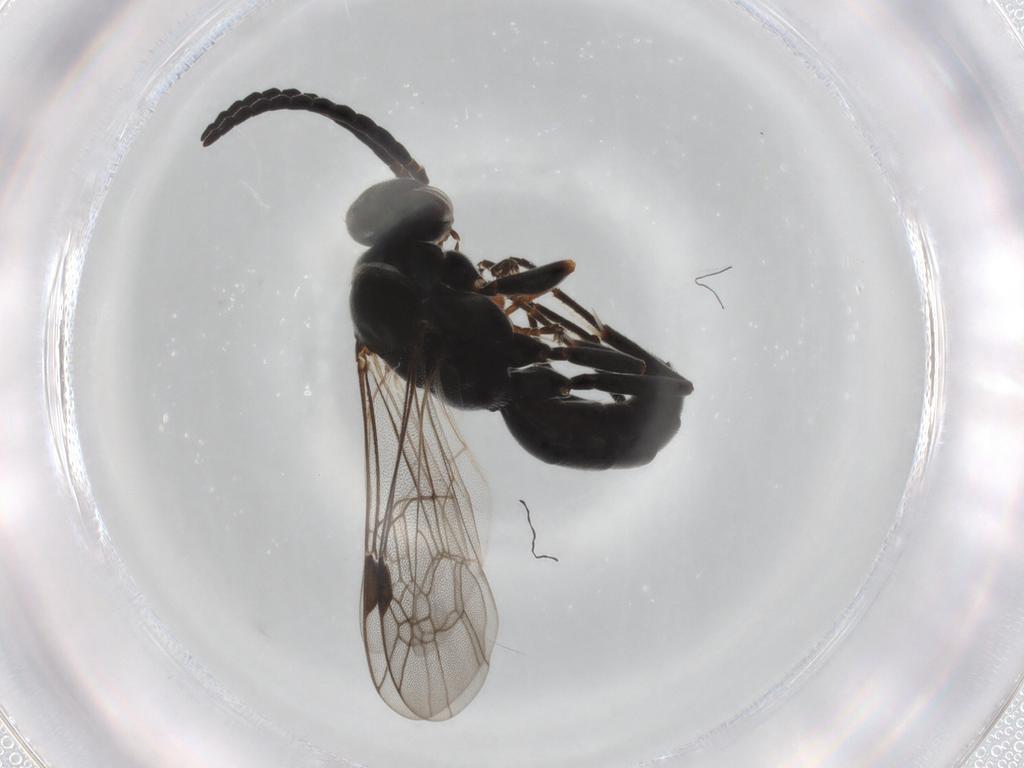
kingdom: Animalia
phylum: Arthropoda
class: Insecta
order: Hymenoptera
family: Pompilidae
